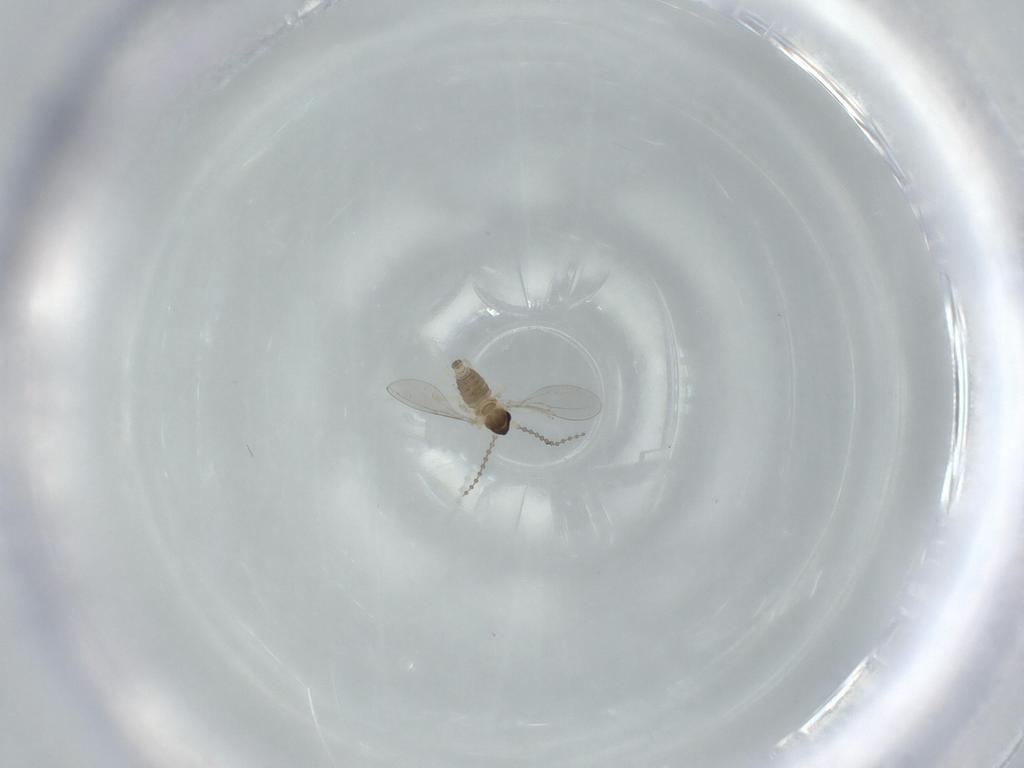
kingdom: Animalia
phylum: Arthropoda
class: Insecta
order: Diptera
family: Cecidomyiidae
